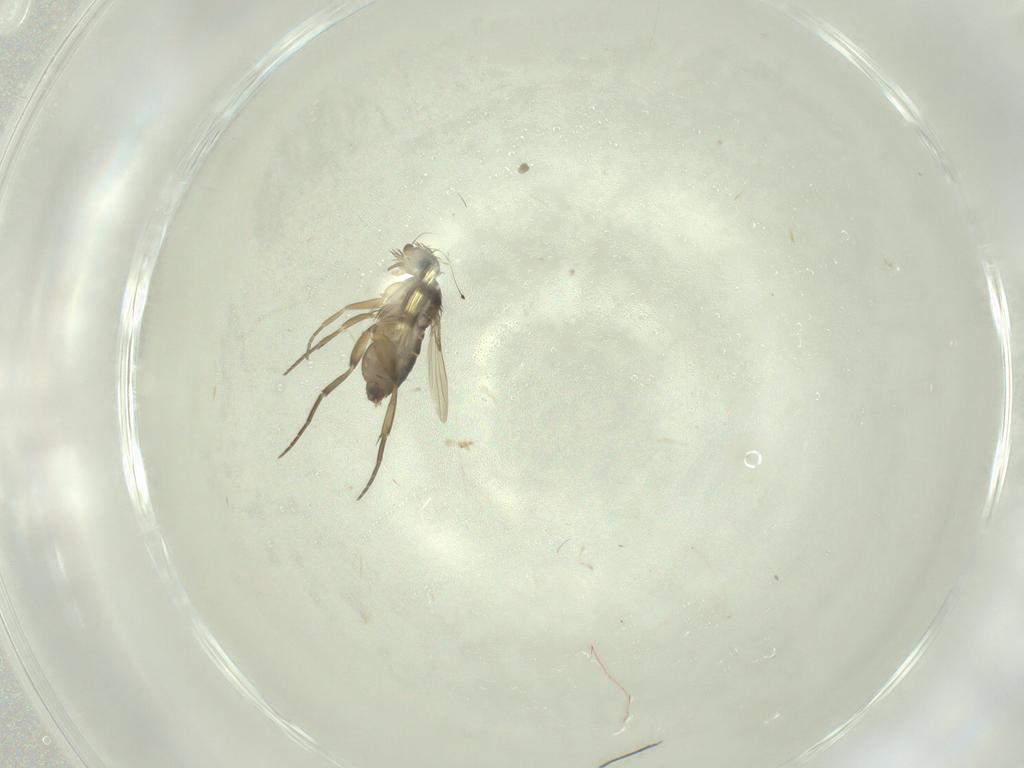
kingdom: Animalia
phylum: Arthropoda
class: Insecta
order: Diptera
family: Phoridae
